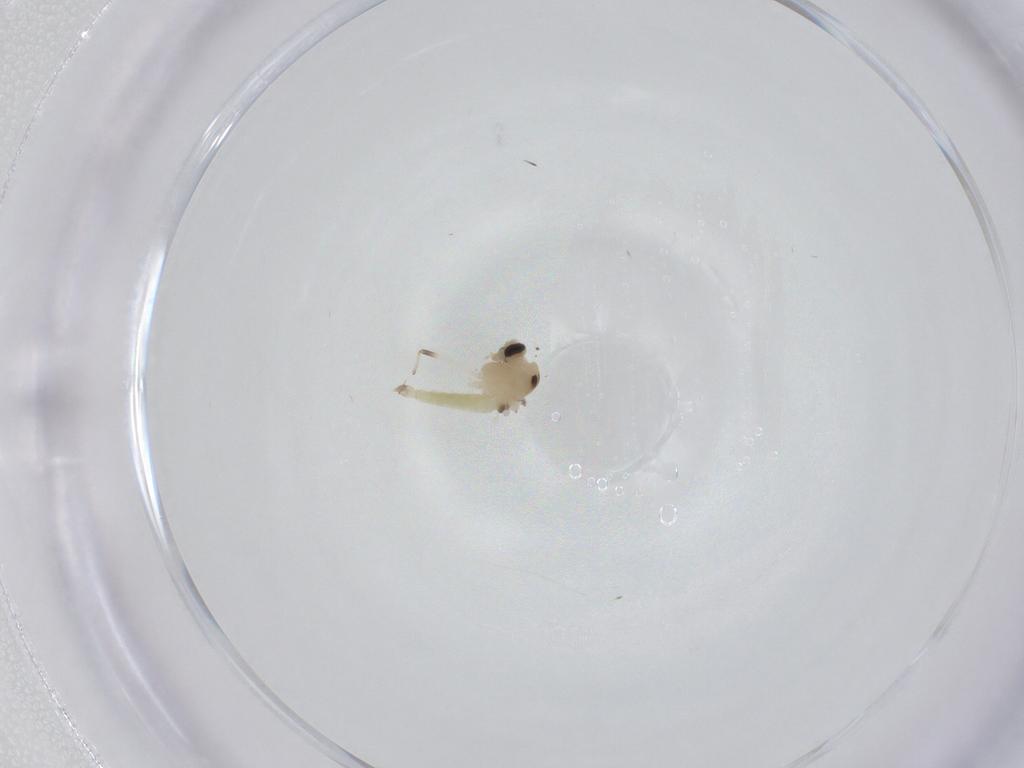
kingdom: Animalia
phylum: Arthropoda
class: Insecta
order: Diptera
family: Chironomidae
